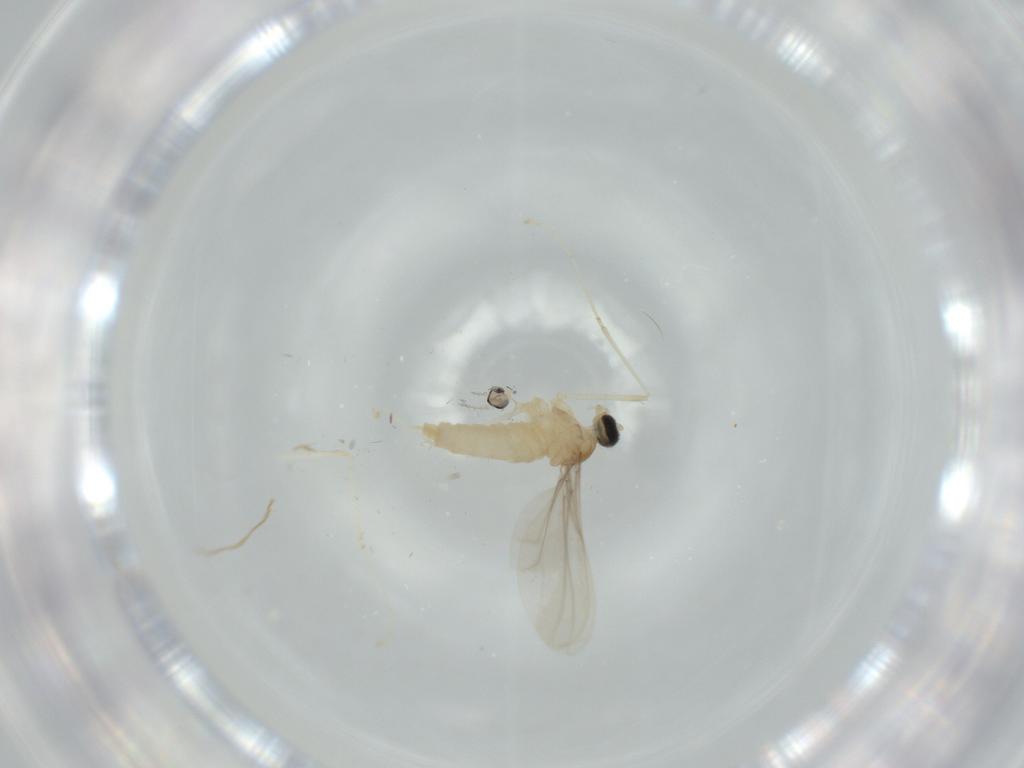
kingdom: Animalia
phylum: Arthropoda
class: Insecta
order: Diptera
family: Cecidomyiidae
